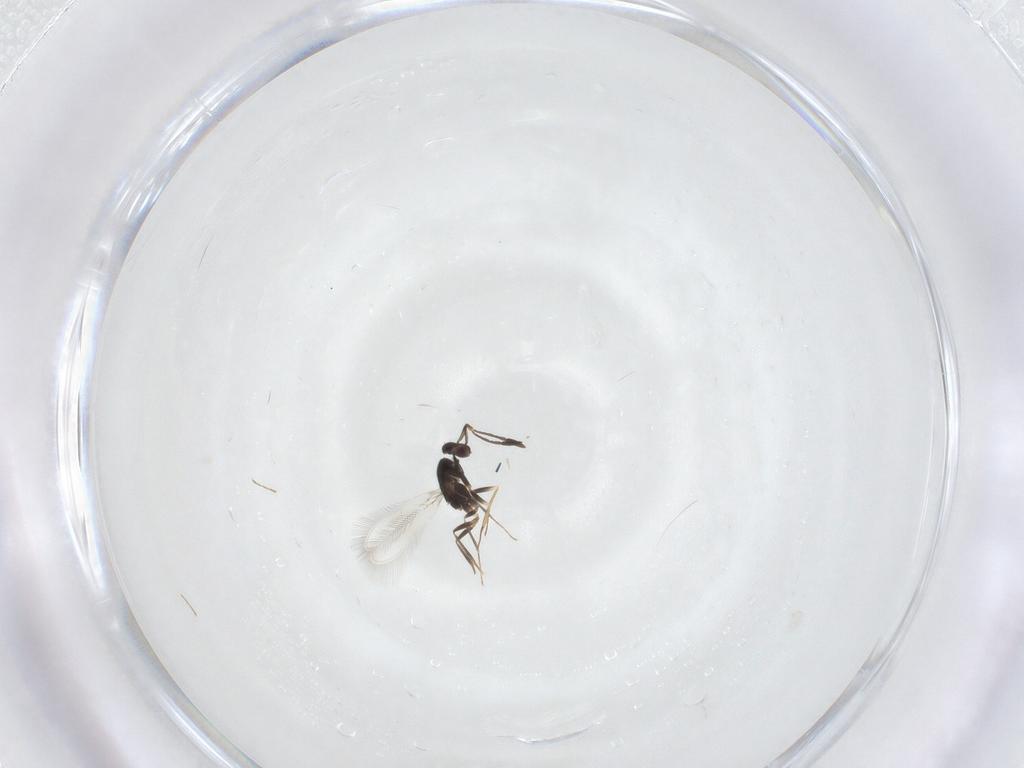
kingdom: Animalia
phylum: Arthropoda
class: Insecta
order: Hymenoptera
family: Mymaridae
